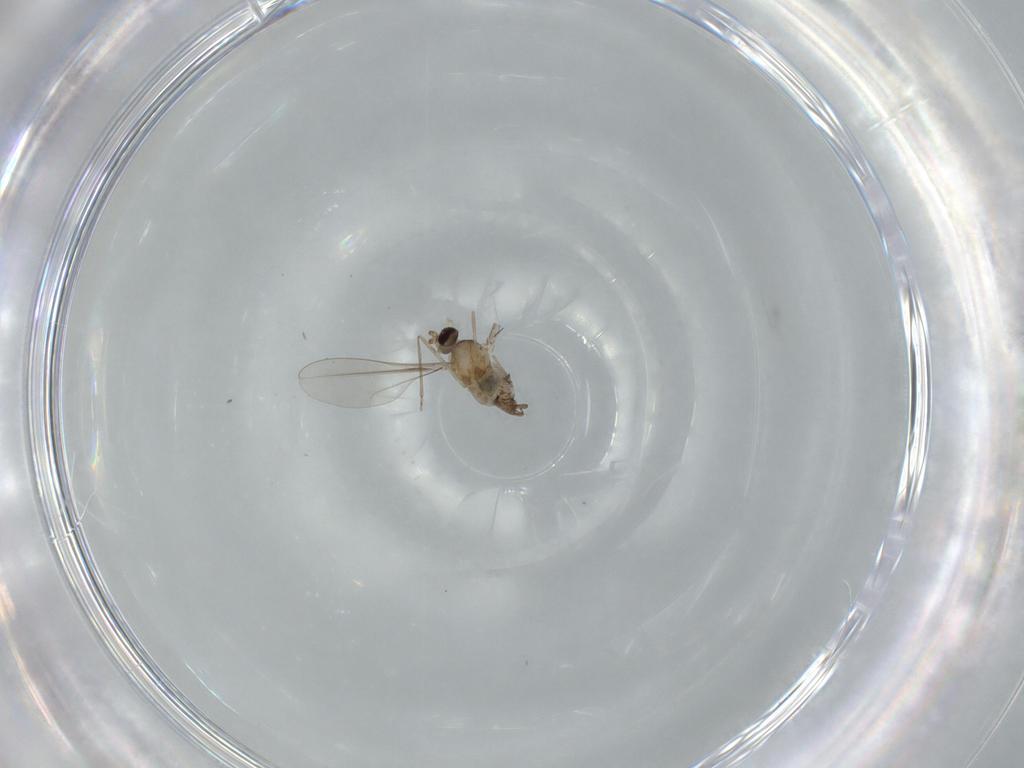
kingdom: Animalia
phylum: Arthropoda
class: Insecta
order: Diptera
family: Cecidomyiidae
